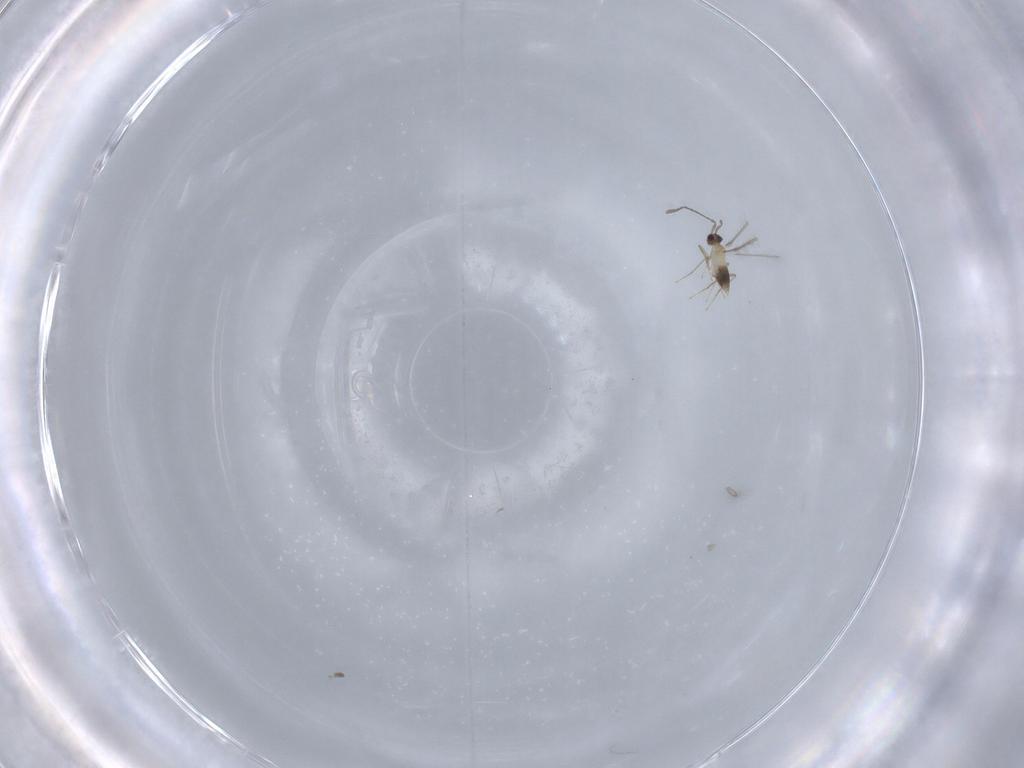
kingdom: Animalia
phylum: Arthropoda
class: Insecta
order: Hymenoptera
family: Mymaridae
